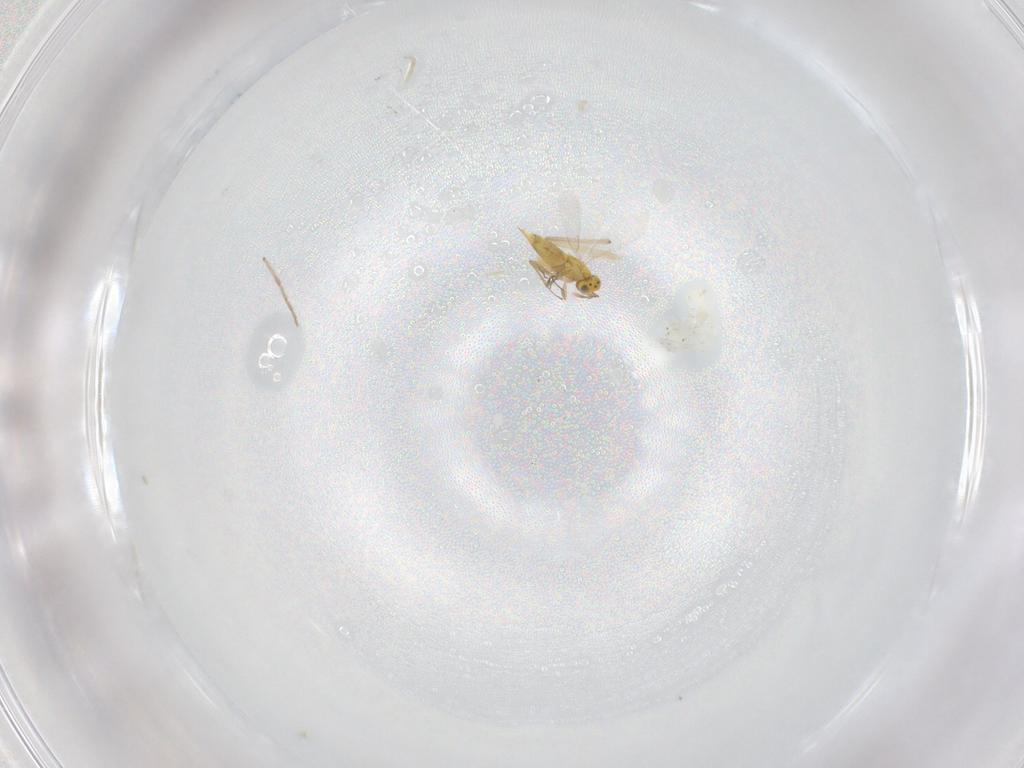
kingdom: Animalia
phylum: Arthropoda
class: Insecta
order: Hymenoptera
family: Aphelinidae
